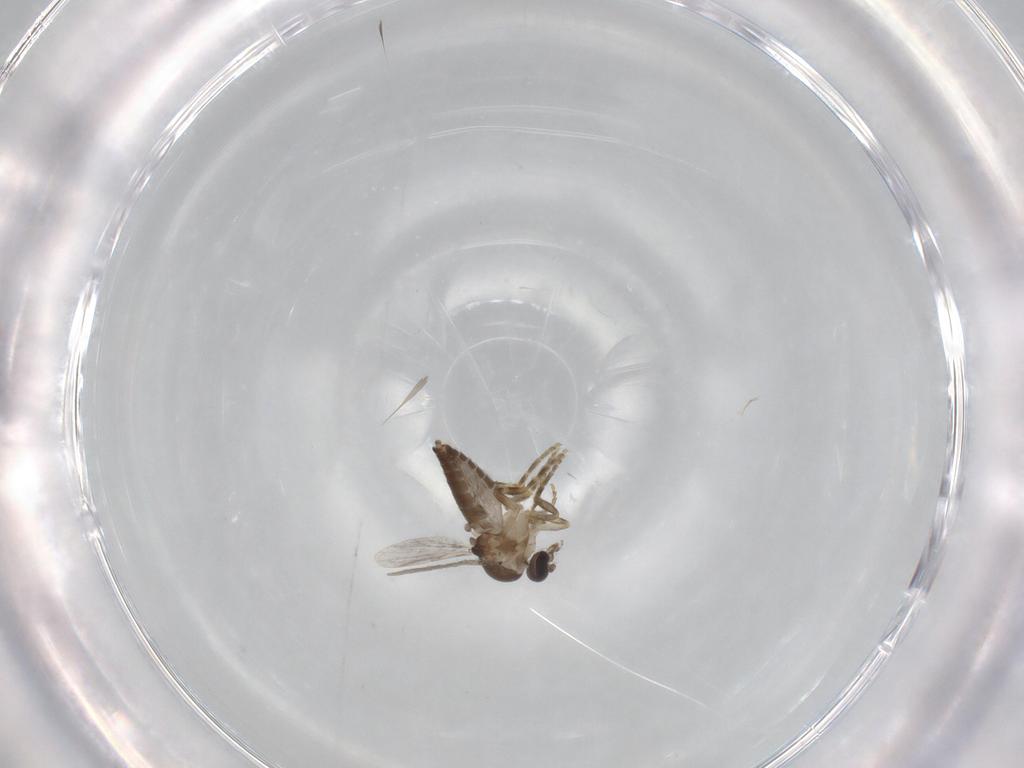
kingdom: Animalia
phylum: Arthropoda
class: Insecta
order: Diptera
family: Ceratopogonidae
